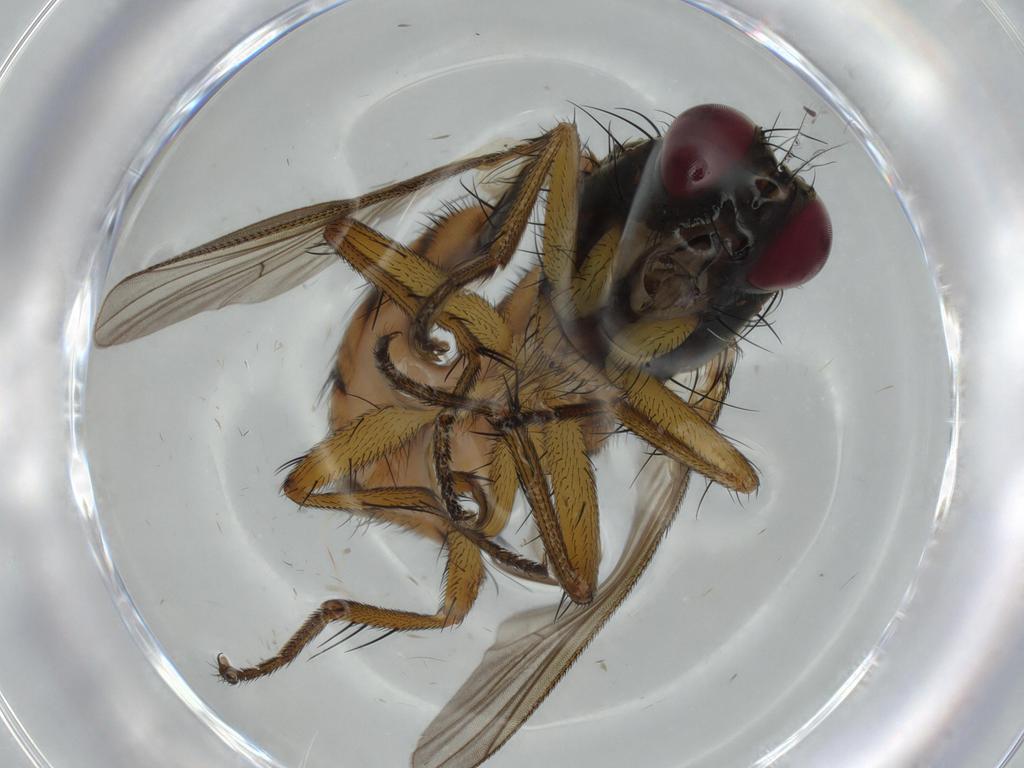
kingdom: Animalia
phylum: Arthropoda
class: Insecta
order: Diptera
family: Muscidae
